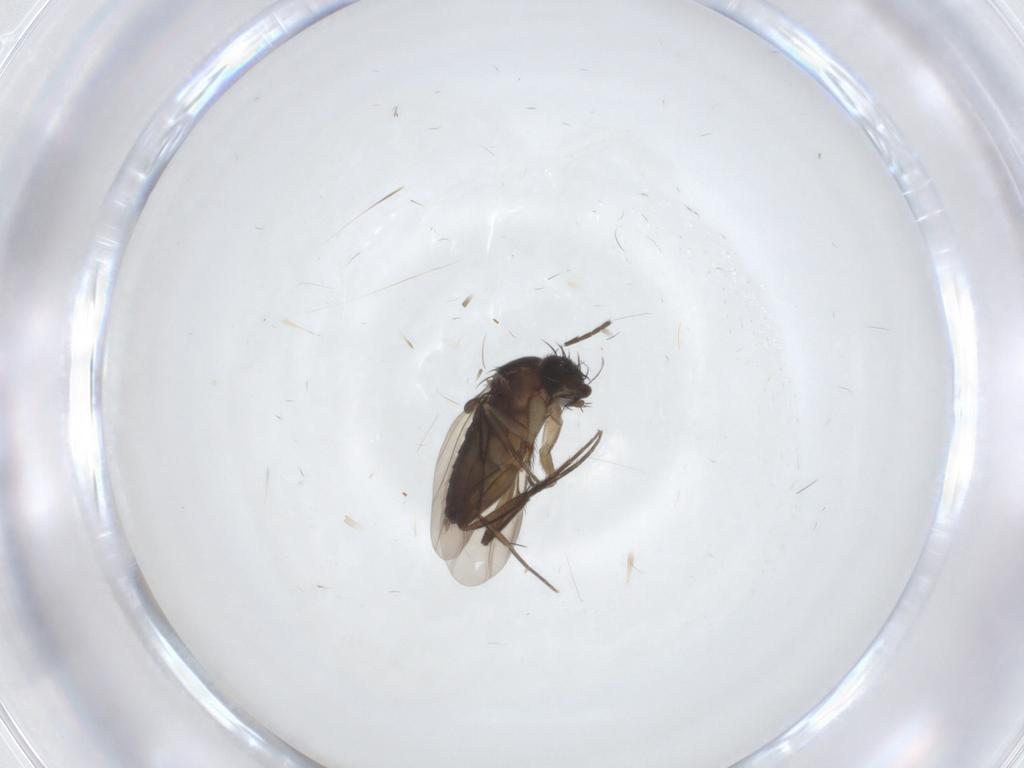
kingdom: Animalia
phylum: Arthropoda
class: Insecta
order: Diptera
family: Phoridae
